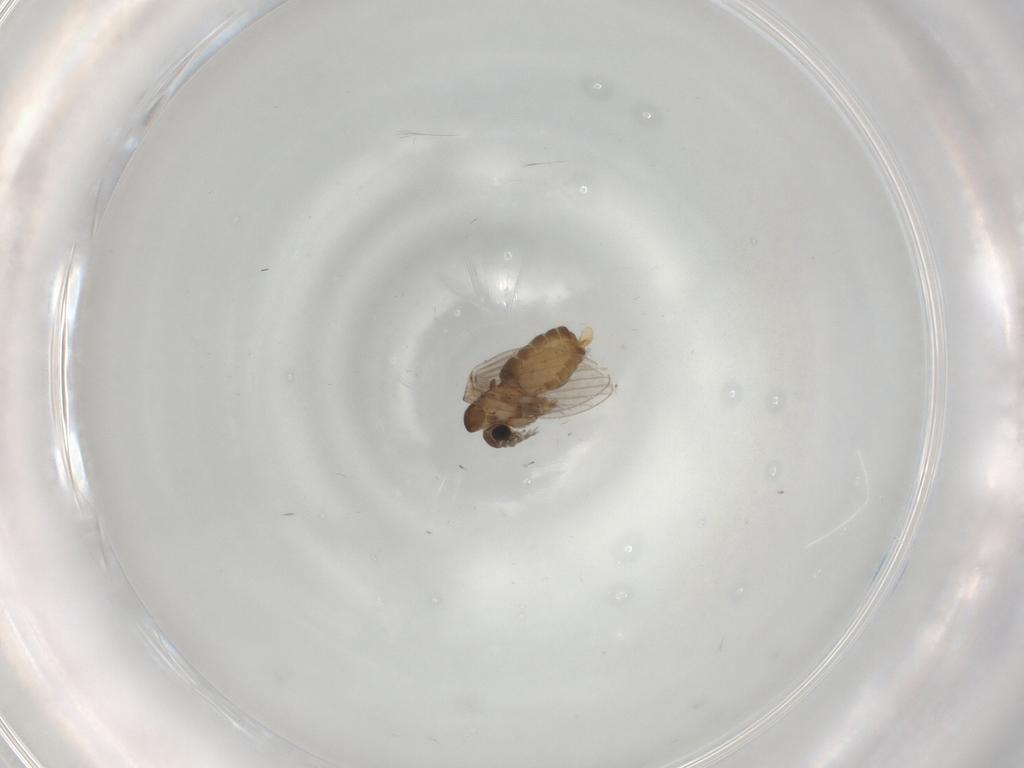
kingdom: Animalia
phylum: Arthropoda
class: Insecta
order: Diptera
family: Psychodidae
